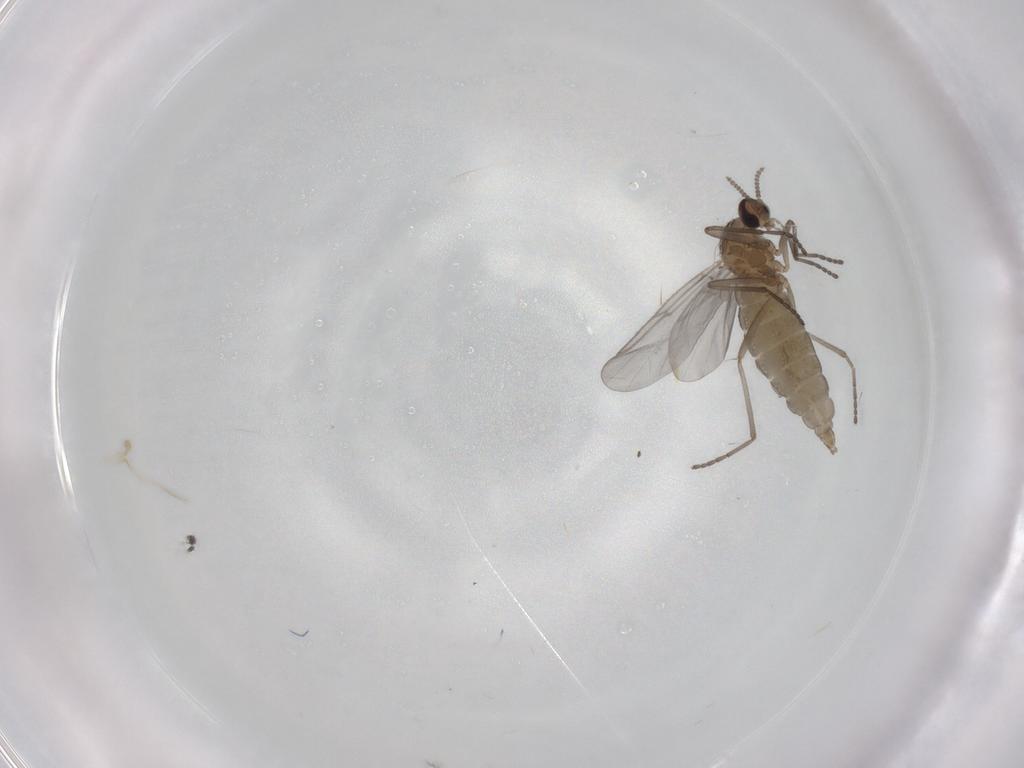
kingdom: Animalia
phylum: Arthropoda
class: Insecta
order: Diptera
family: Cecidomyiidae
